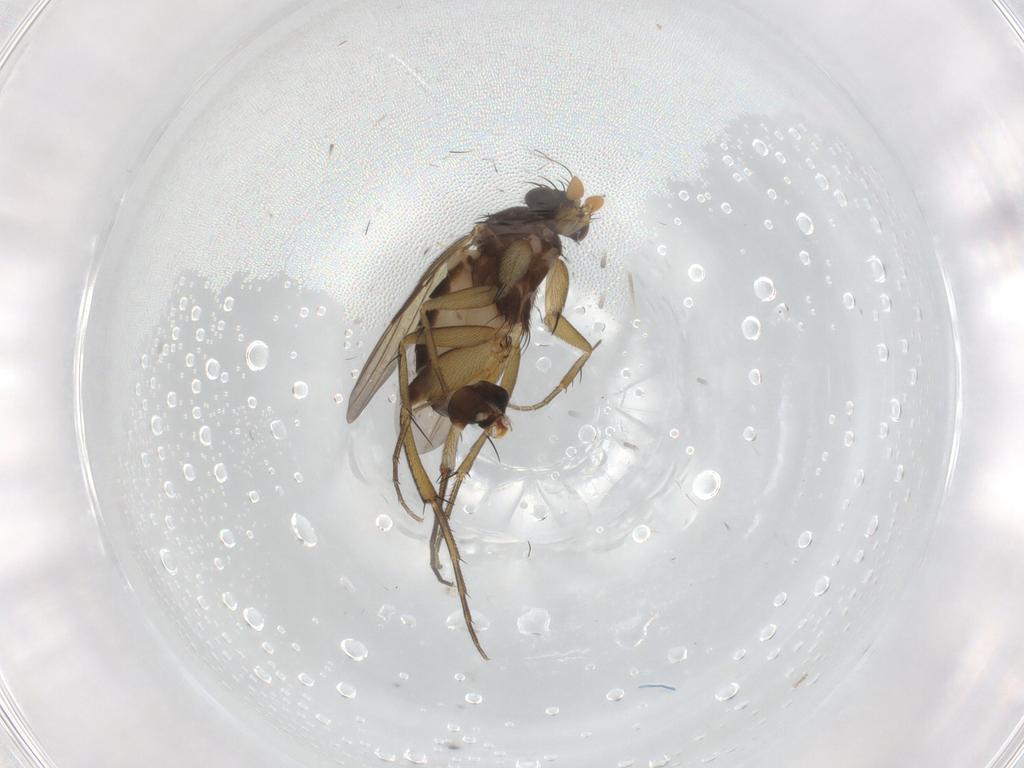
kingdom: Animalia
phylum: Arthropoda
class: Insecta
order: Diptera
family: Phoridae
